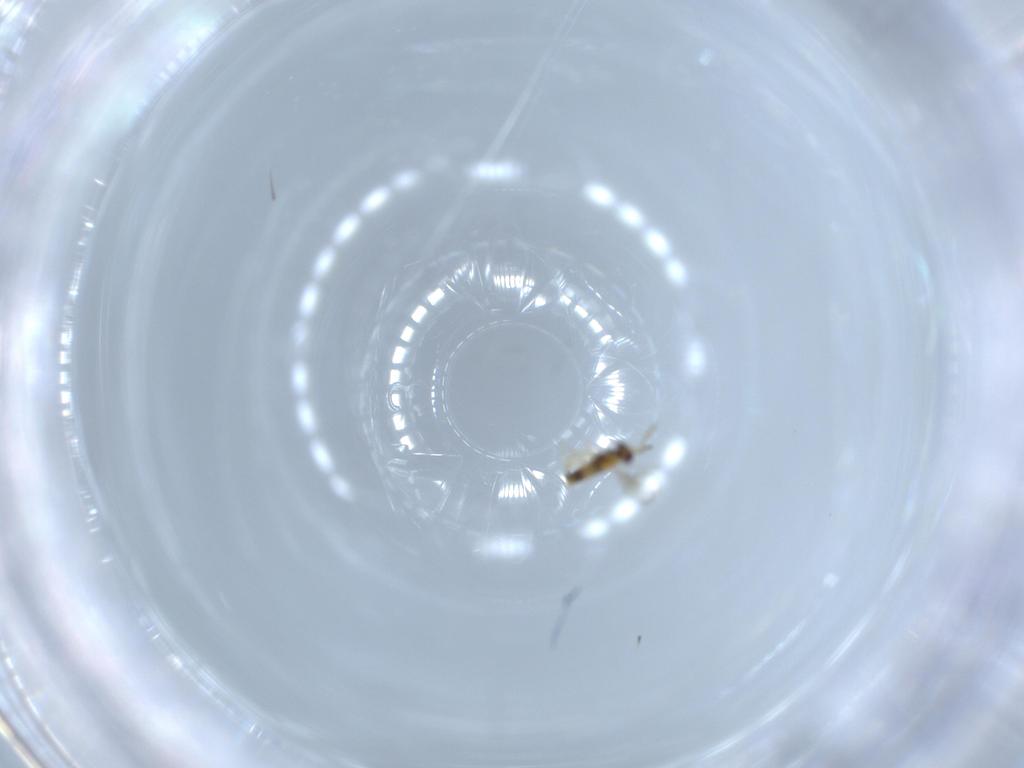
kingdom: Animalia
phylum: Arthropoda
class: Insecta
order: Hymenoptera
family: Aphelinidae
